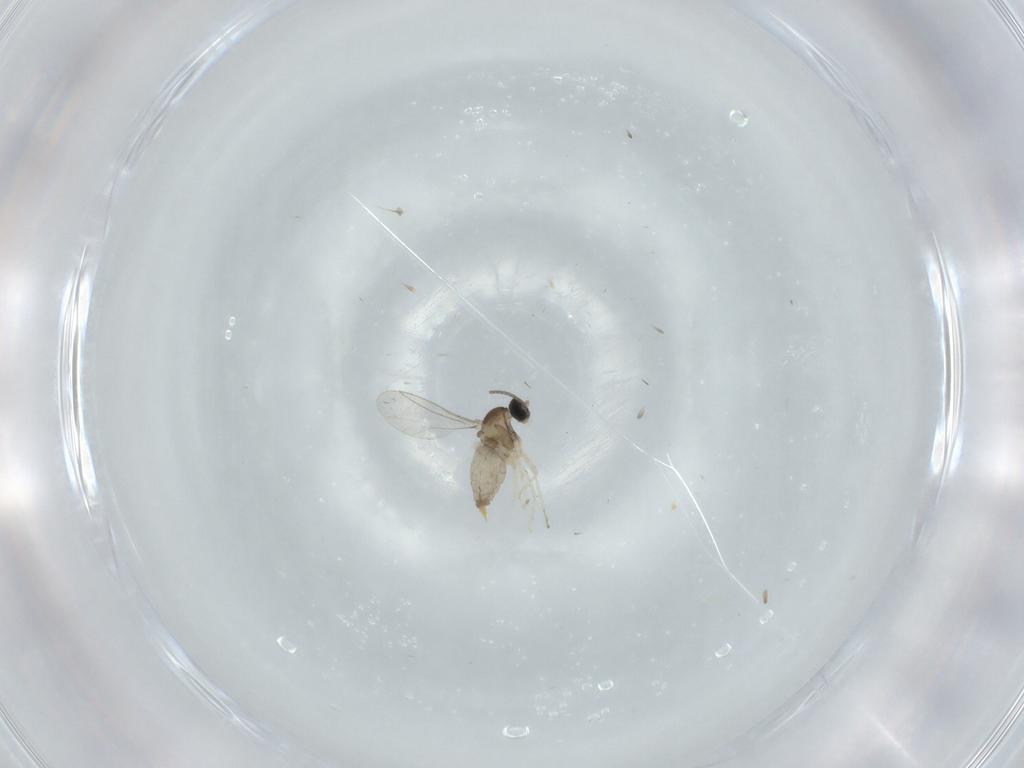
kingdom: Animalia
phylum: Arthropoda
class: Insecta
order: Diptera
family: Cecidomyiidae
